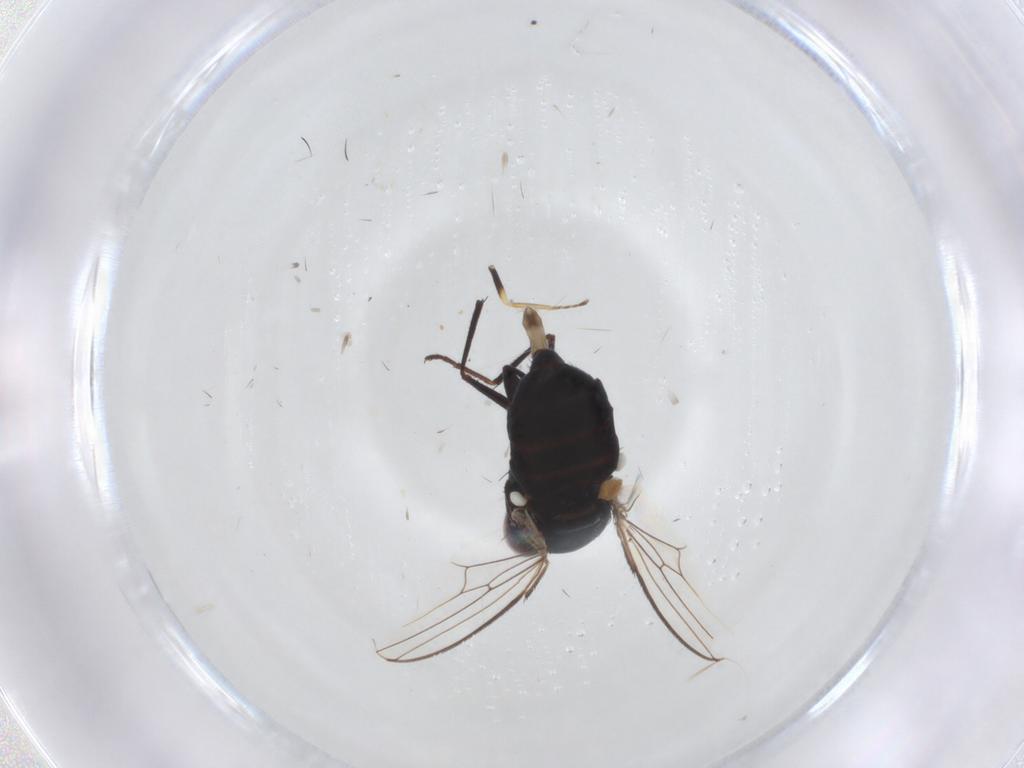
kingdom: Animalia
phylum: Arthropoda
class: Insecta
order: Diptera
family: Carnidae
